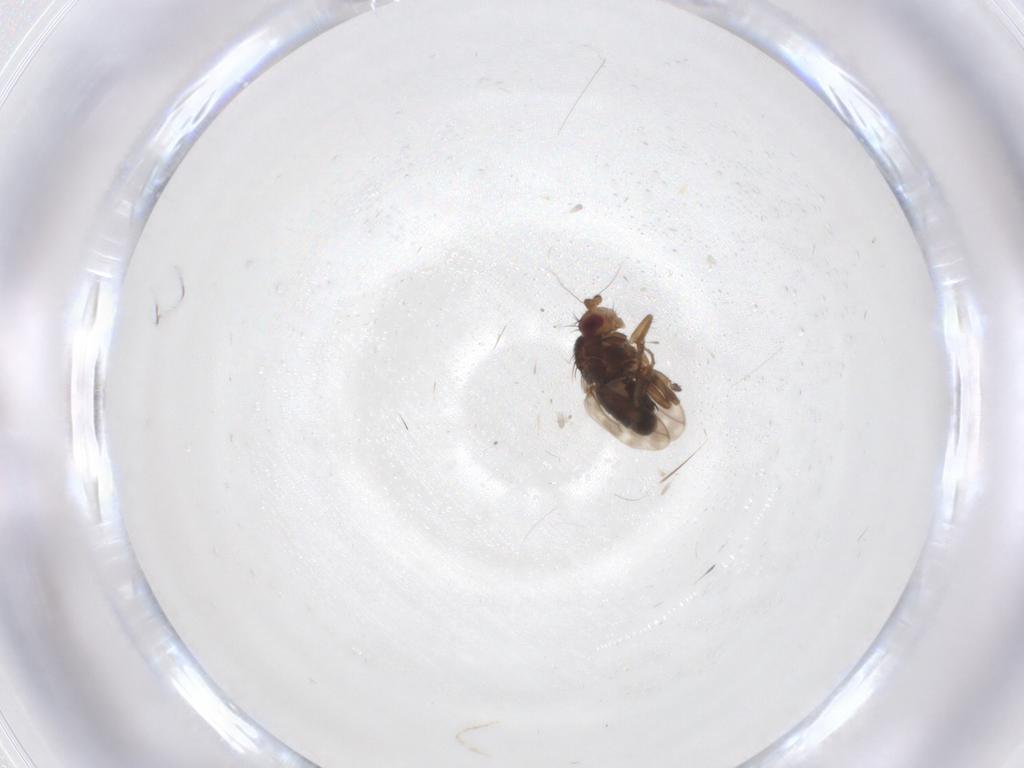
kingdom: Animalia
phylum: Arthropoda
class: Insecta
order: Diptera
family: Sphaeroceridae
